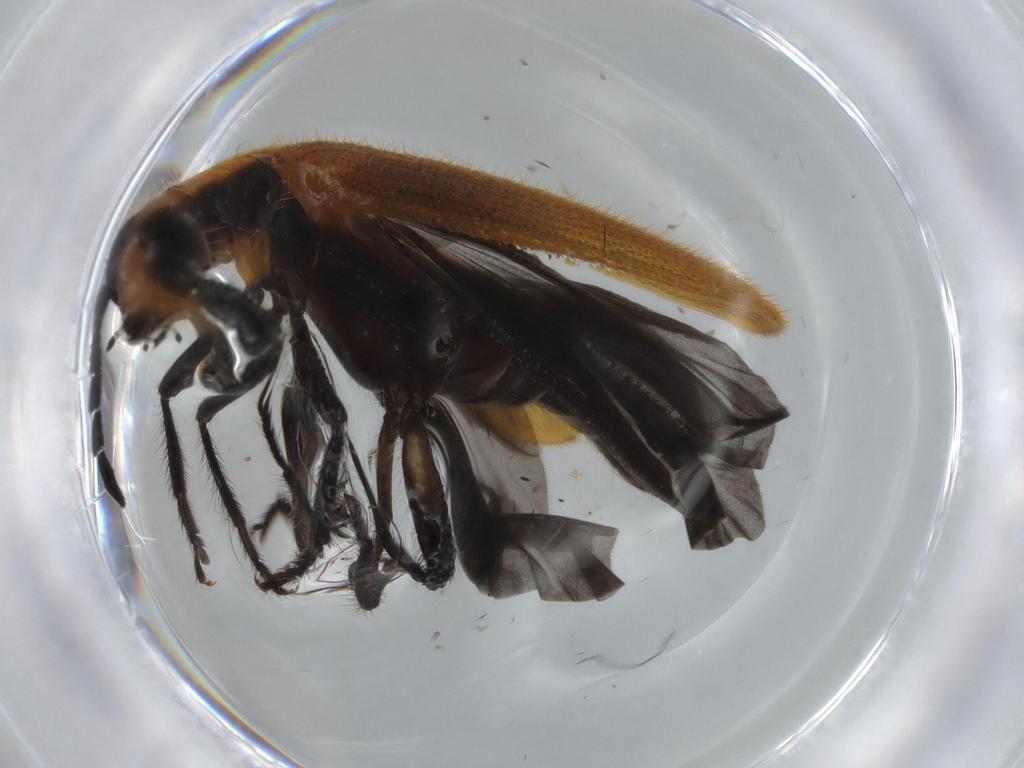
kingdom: Animalia
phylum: Arthropoda
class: Insecta
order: Coleoptera
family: Cleridae
